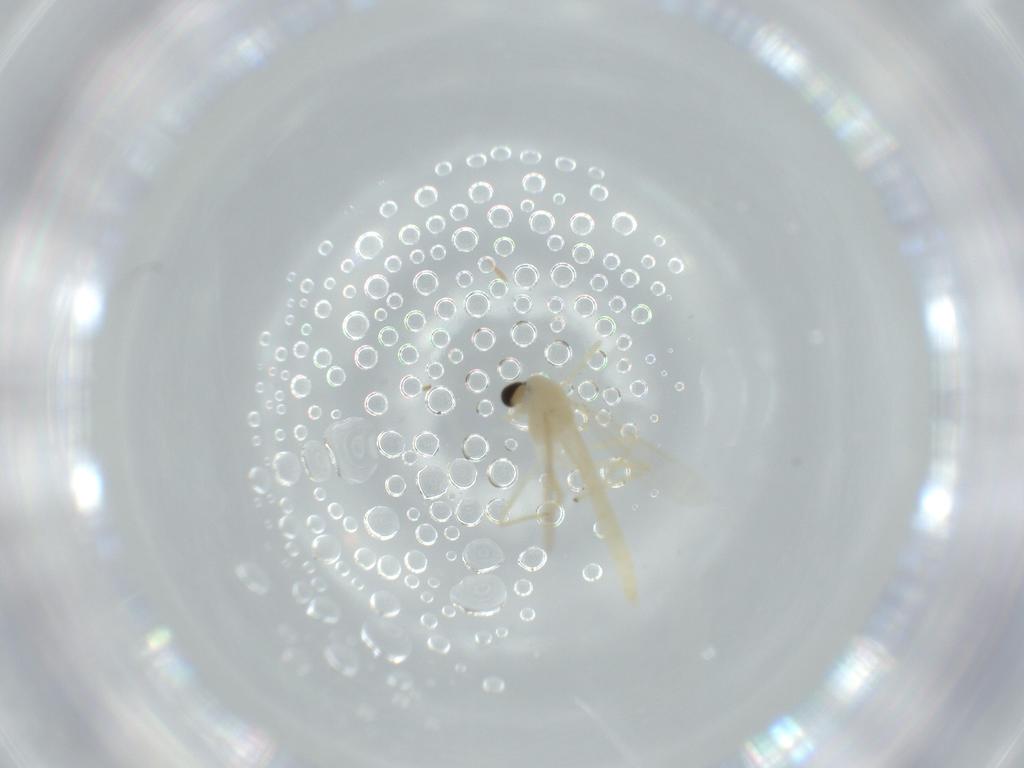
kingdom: Animalia
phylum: Arthropoda
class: Insecta
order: Diptera
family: Chironomidae
